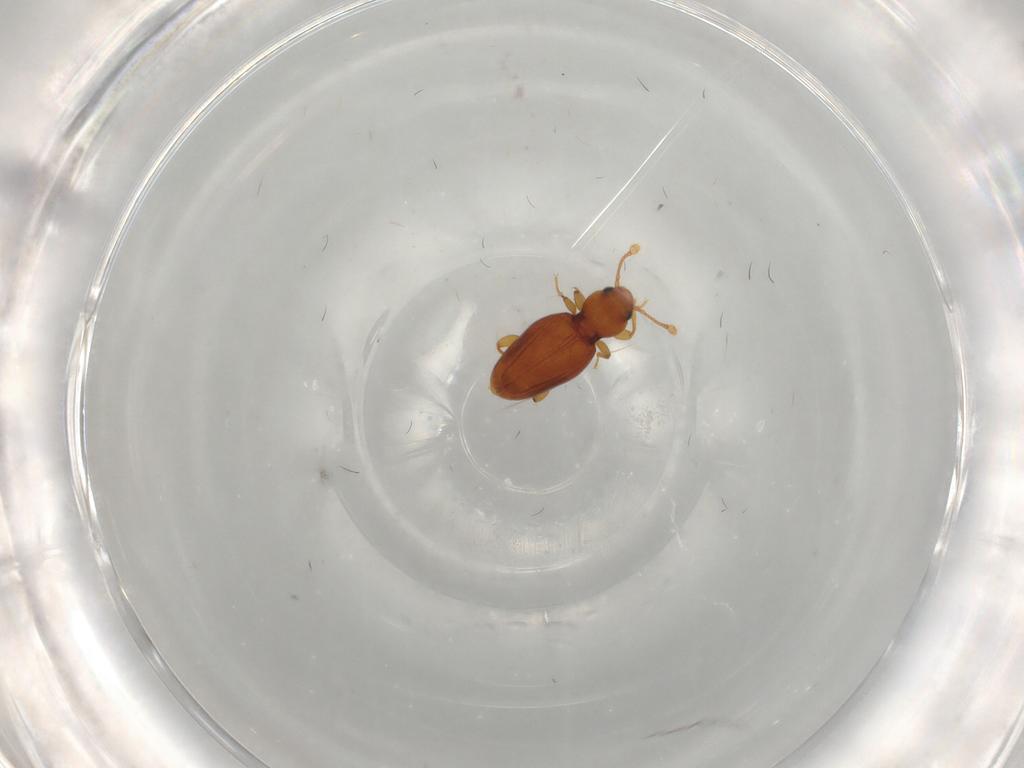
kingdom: Animalia
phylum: Arthropoda
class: Insecta
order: Coleoptera
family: Endomychidae
